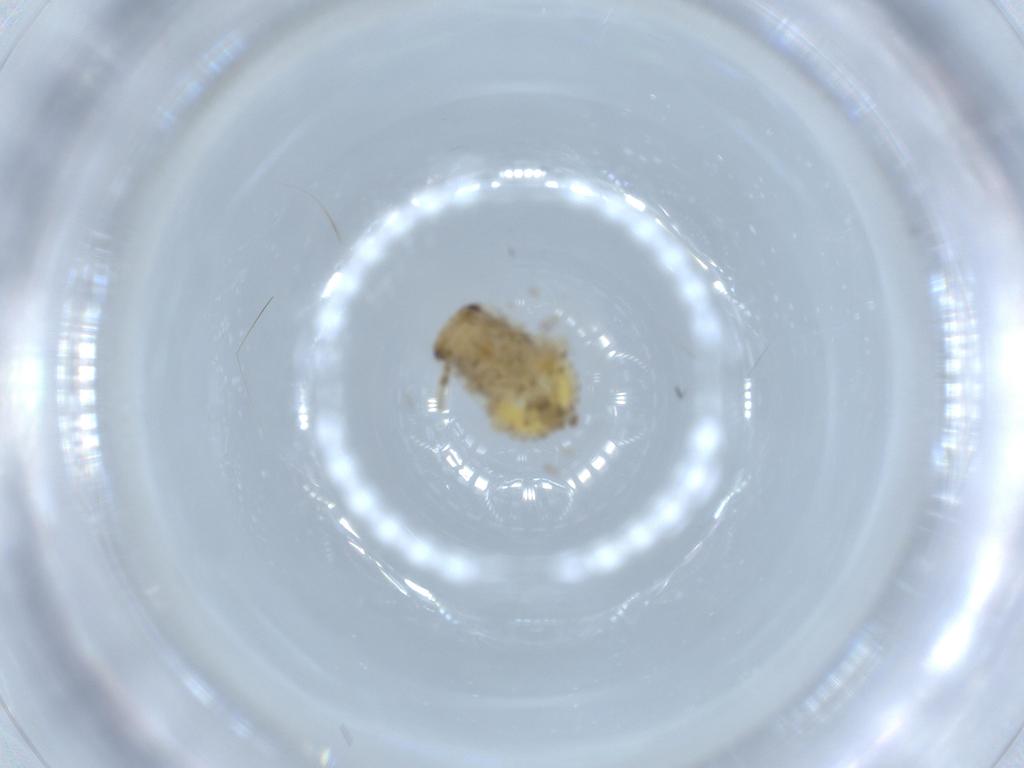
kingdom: Animalia
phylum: Arthropoda
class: Insecta
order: Blattodea
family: Ectobiidae
